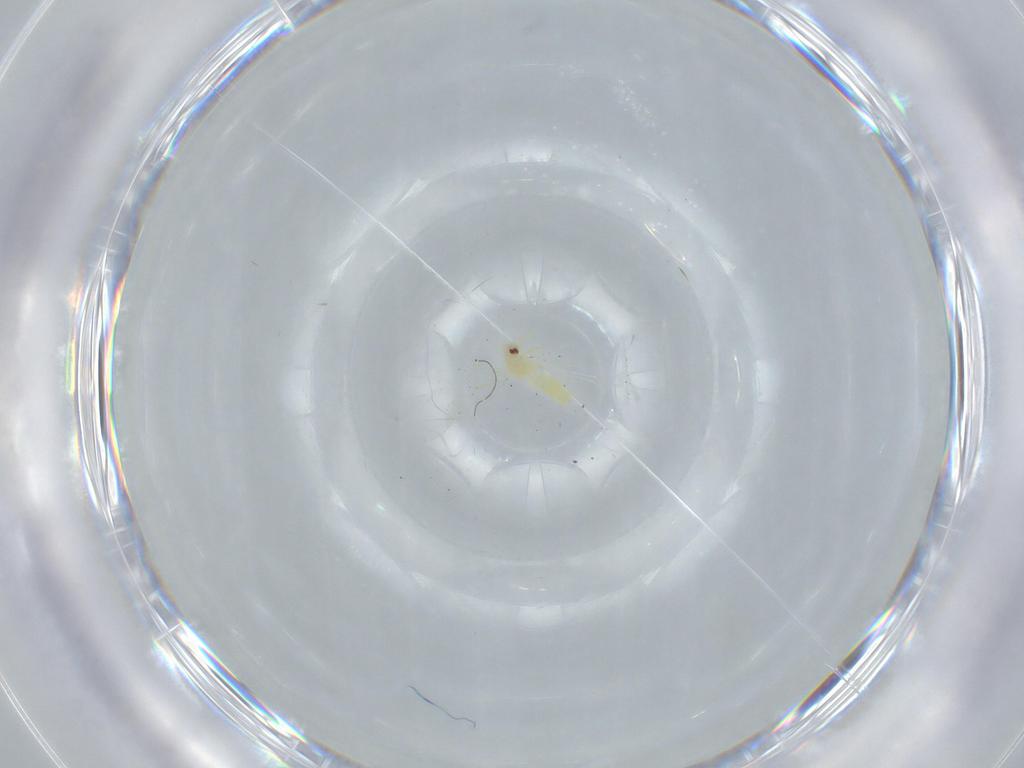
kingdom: Animalia
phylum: Arthropoda
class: Insecta
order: Hemiptera
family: Aleyrodidae
